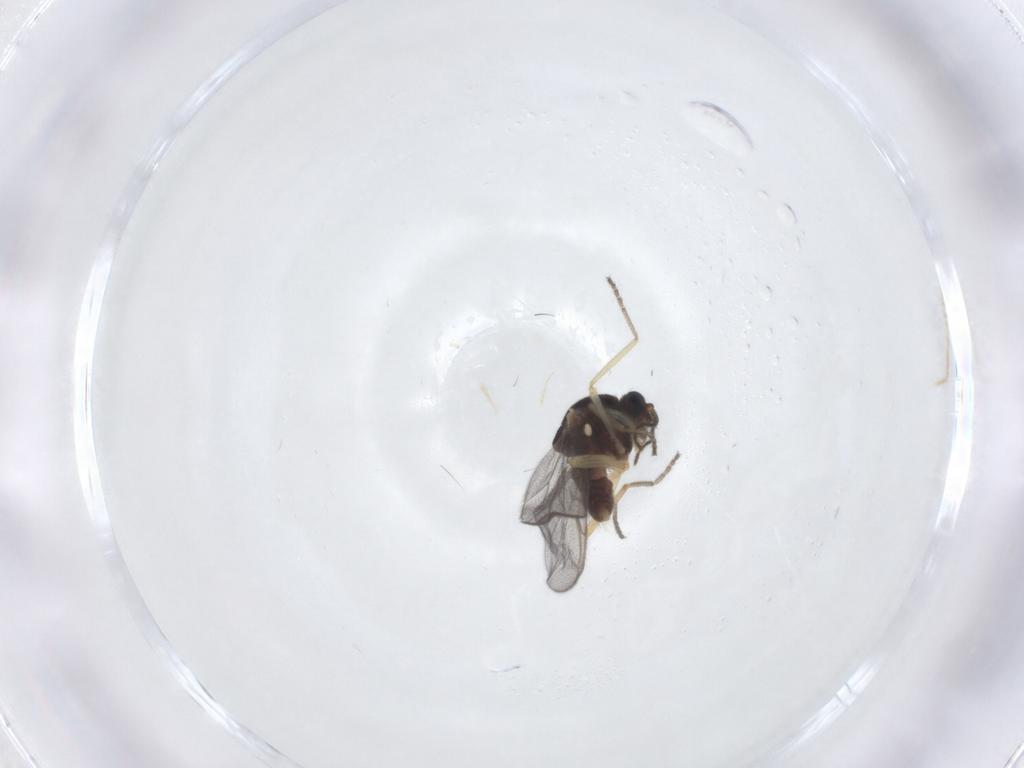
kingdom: Animalia
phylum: Arthropoda
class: Insecta
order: Diptera
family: Ceratopogonidae
